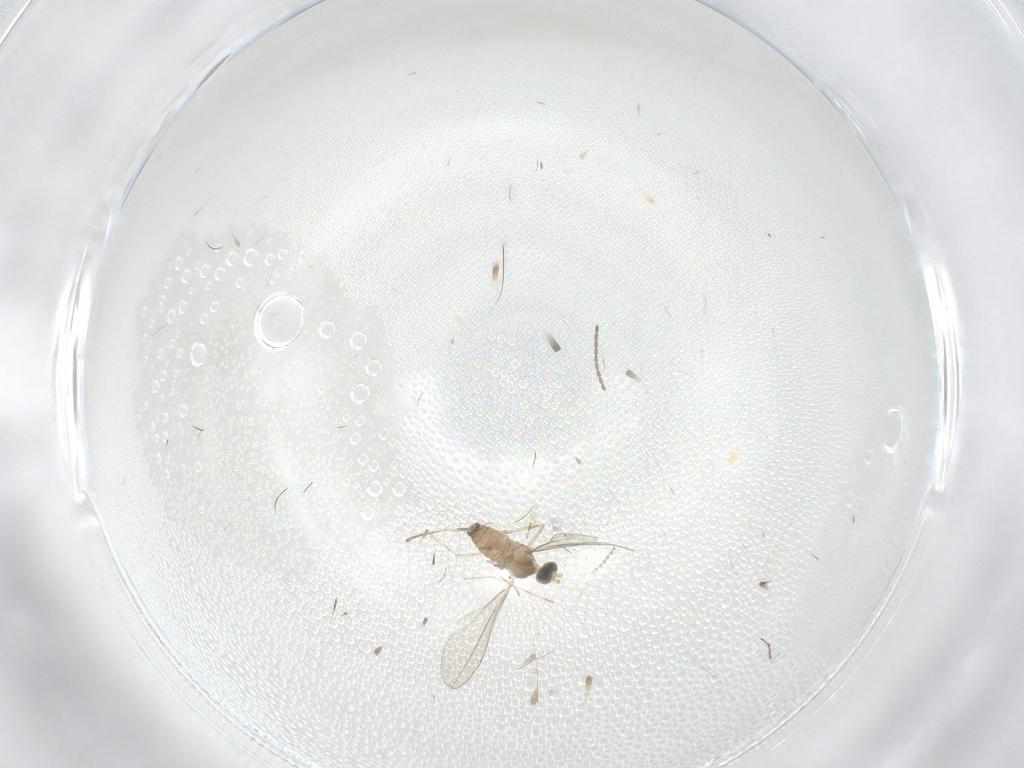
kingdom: Animalia
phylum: Arthropoda
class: Insecta
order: Diptera
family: Cecidomyiidae
